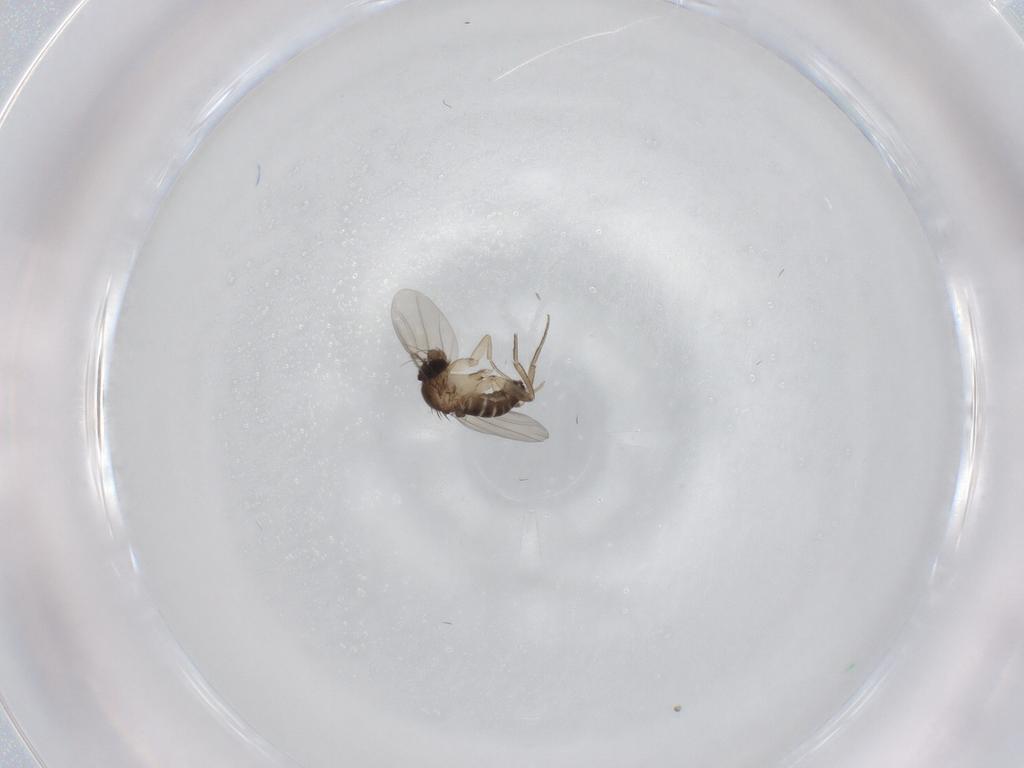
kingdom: Animalia
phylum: Arthropoda
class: Insecta
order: Diptera
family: Phoridae
